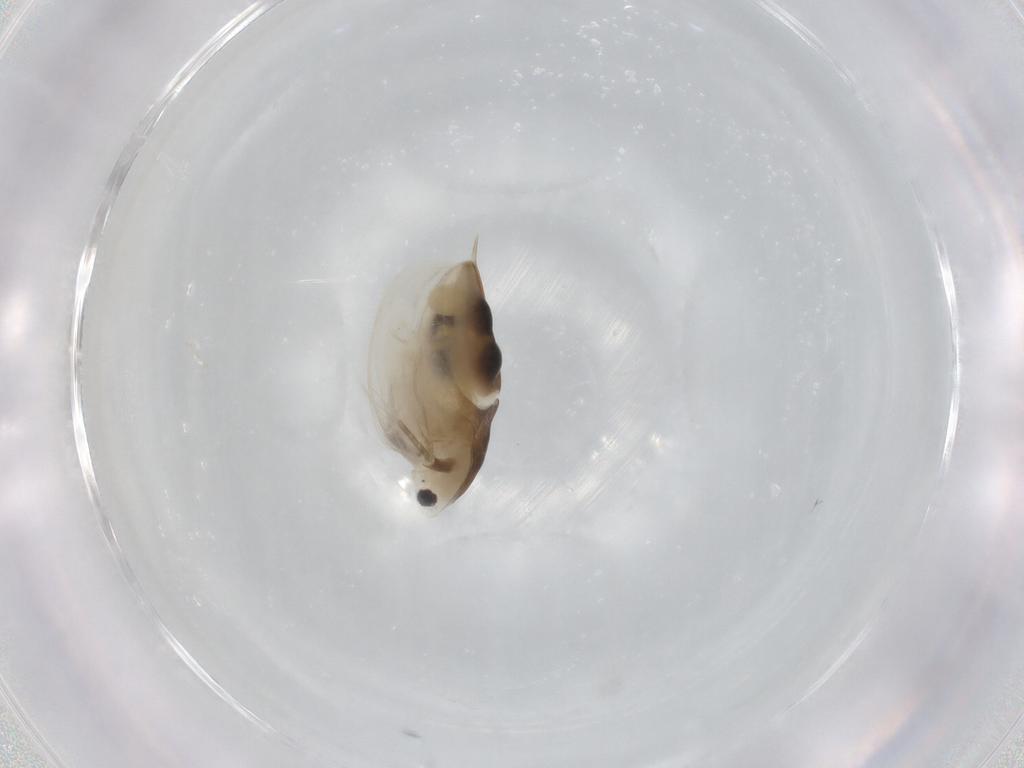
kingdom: Animalia
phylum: Arthropoda
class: Branchiopoda
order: Diplostraca
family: Daphniidae
